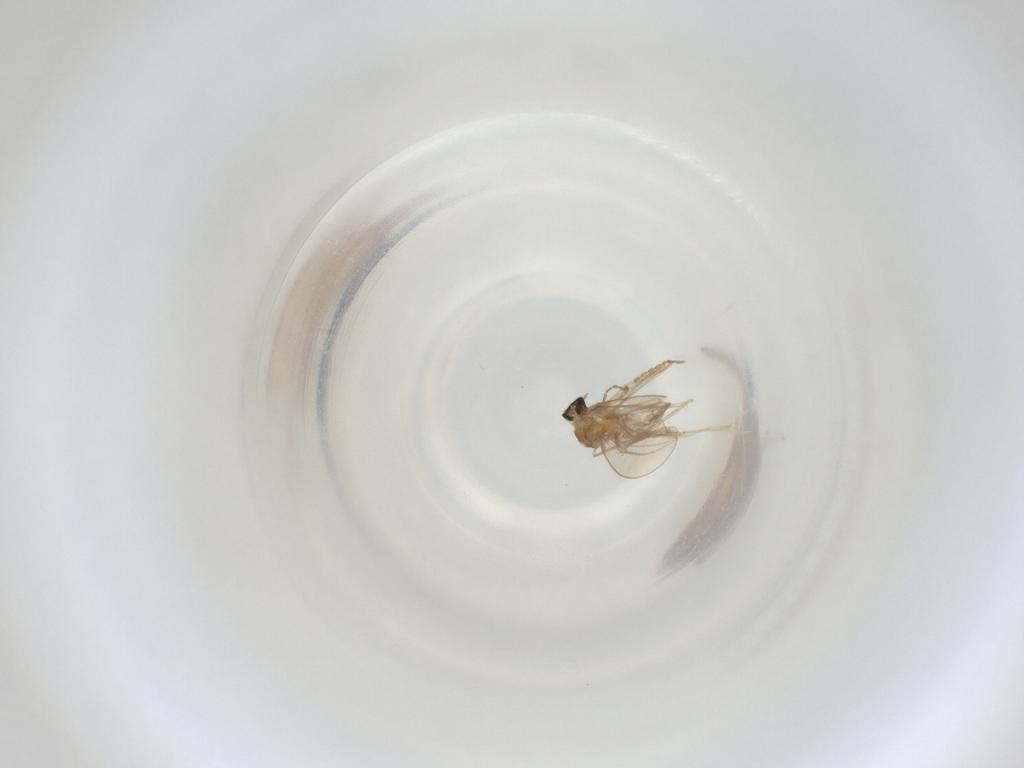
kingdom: Animalia
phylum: Arthropoda
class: Insecta
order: Diptera
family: Cecidomyiidae
